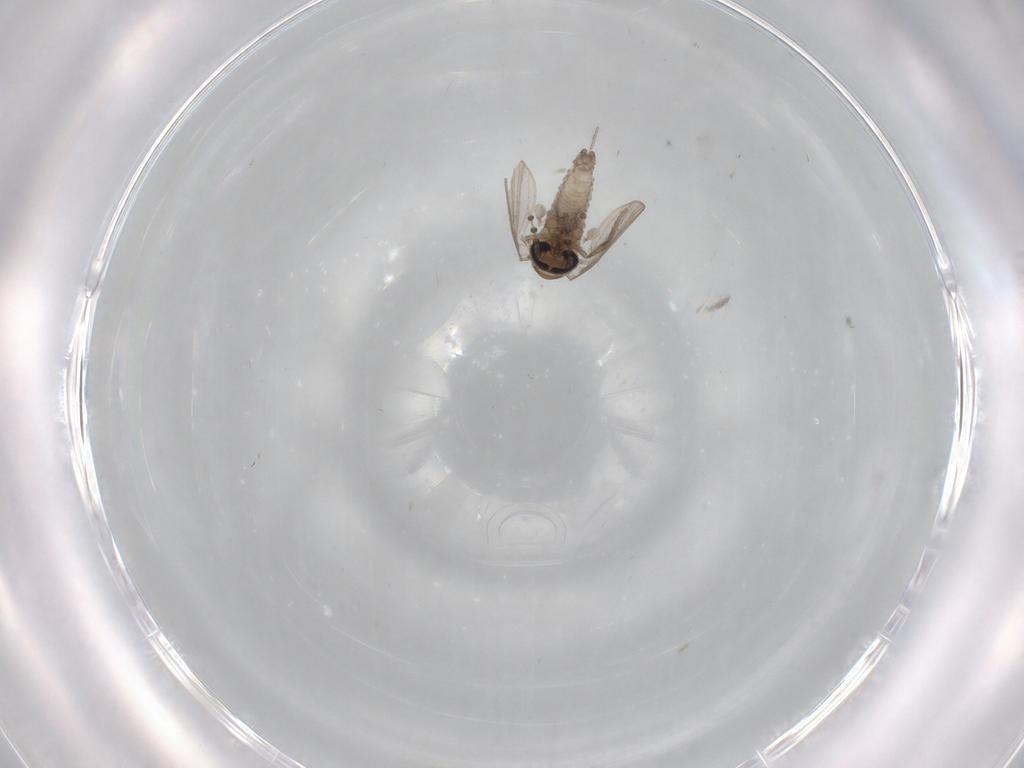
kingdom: Animalia
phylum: Arthropoda
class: Insecta
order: Diptera
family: Psychodidae
